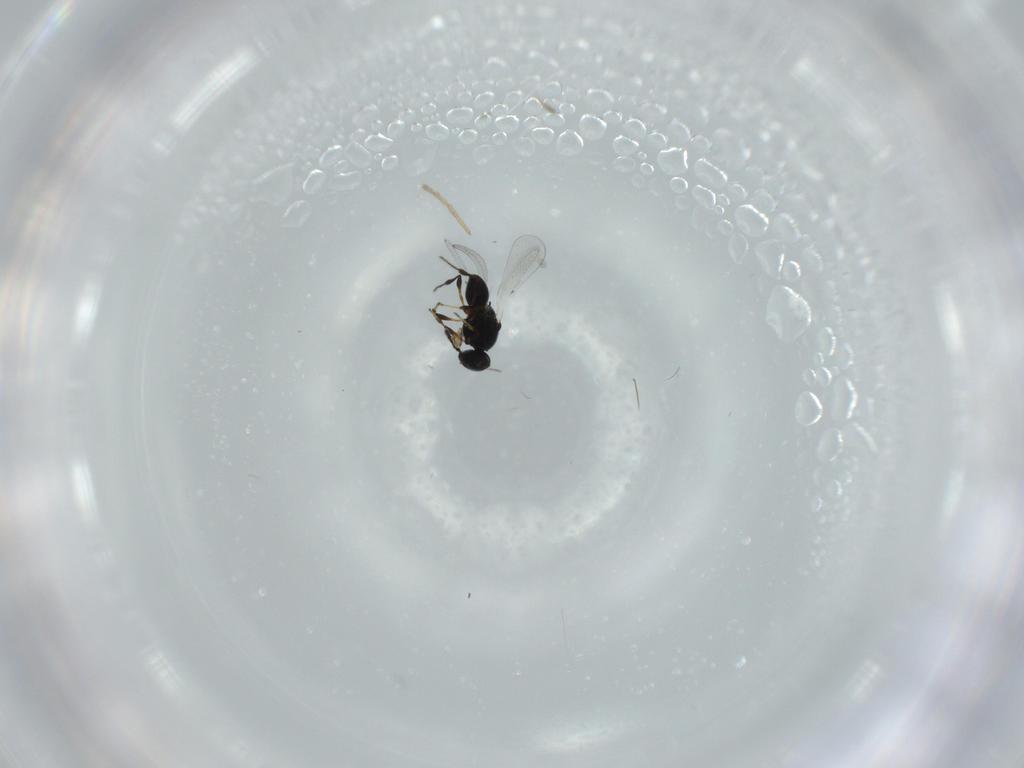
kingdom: Animalia
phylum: Arthropoda
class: Insecta
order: Hymenoptera
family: Platygastridae
